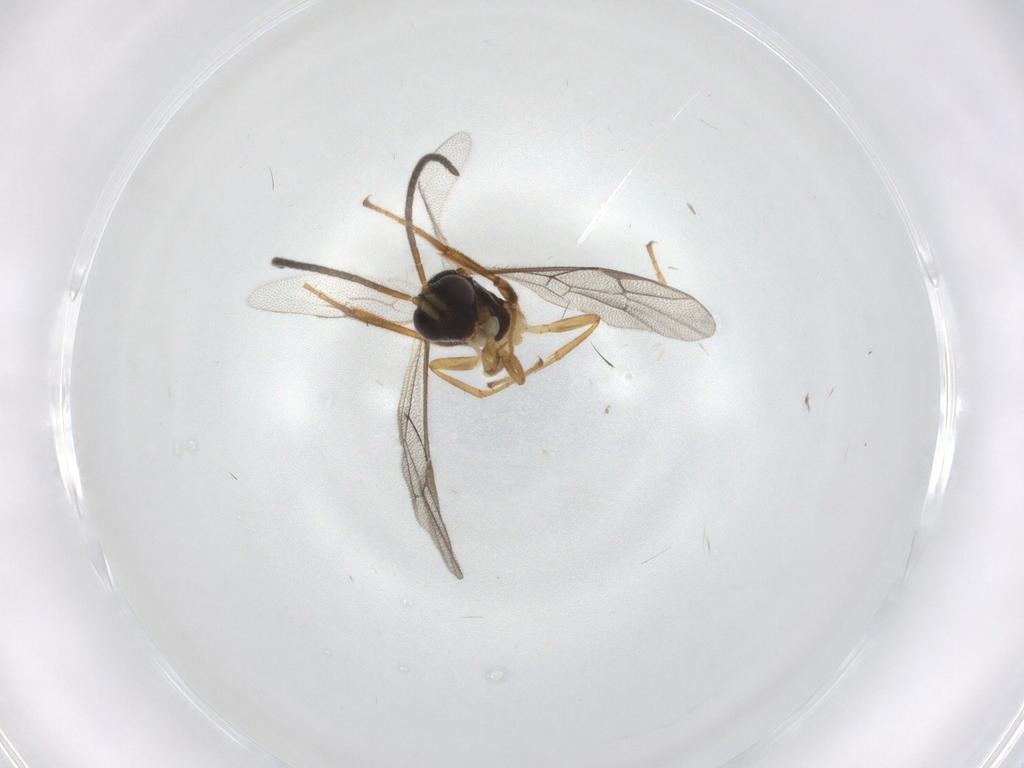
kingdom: Animalia
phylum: Arthropoda
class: Insecta
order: Hymenoptera
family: Ichneumonidae
